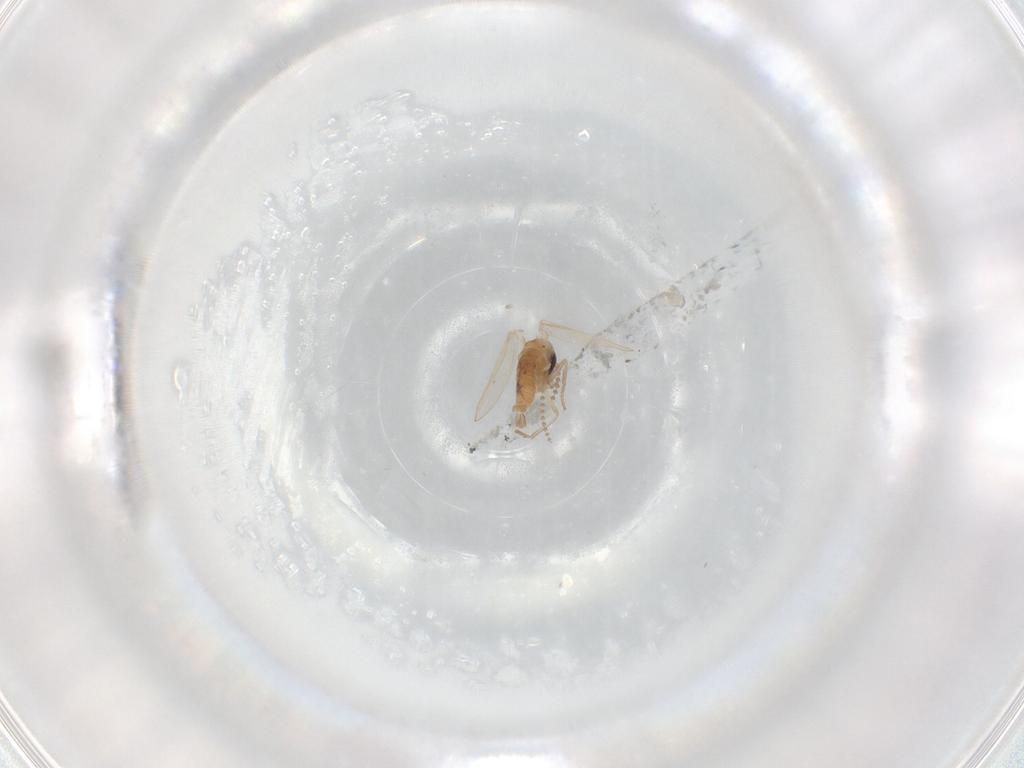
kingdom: Animalia
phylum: Arthropoda
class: Insecta
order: Diptera
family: Psychodidae
